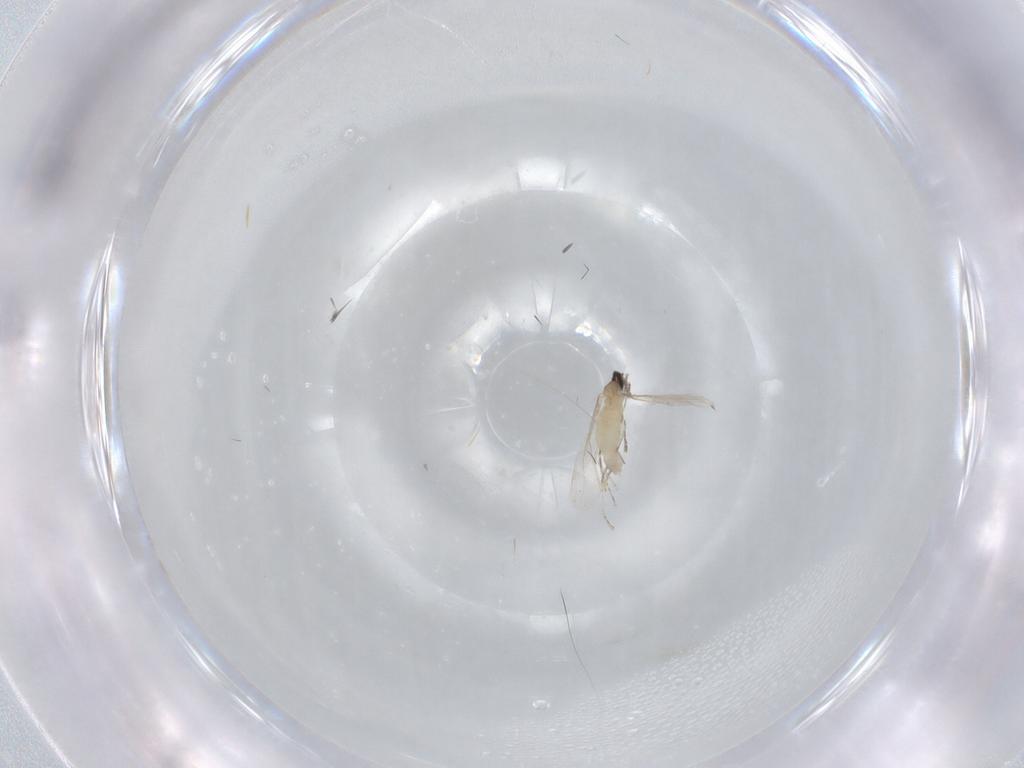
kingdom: Animalia
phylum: Arthropoda
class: Insecta
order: Diptera
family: Cecidomyiidae
